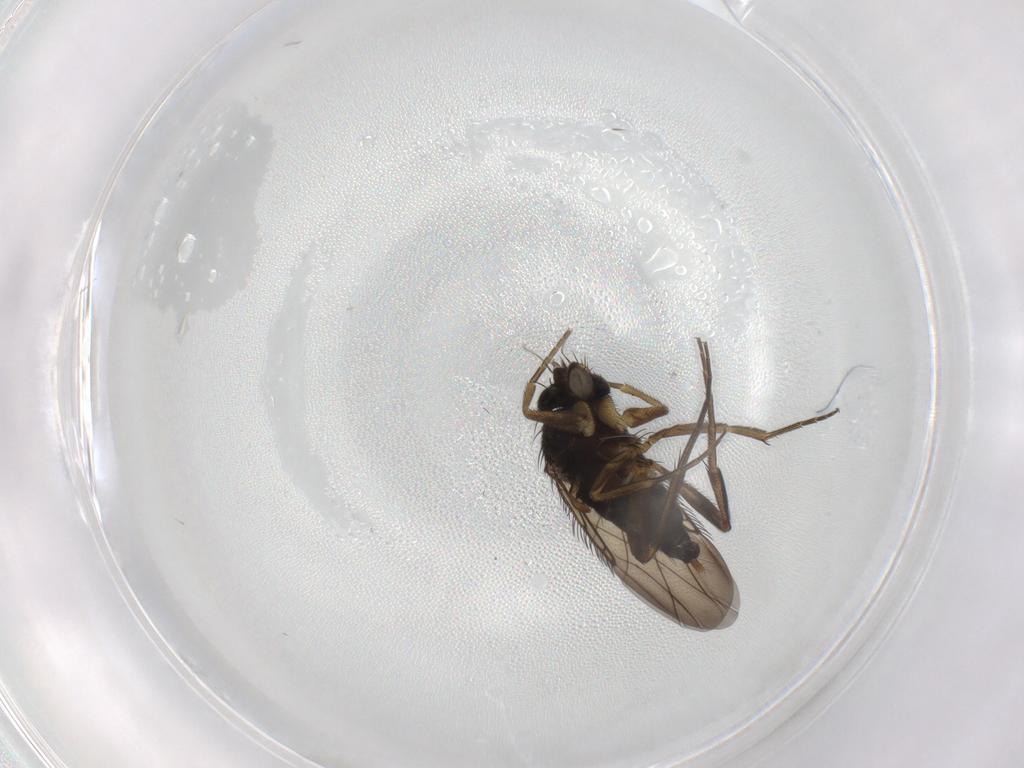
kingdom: Animalia
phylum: Arthropoda
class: Insecta
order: Diptera
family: Phoridae
